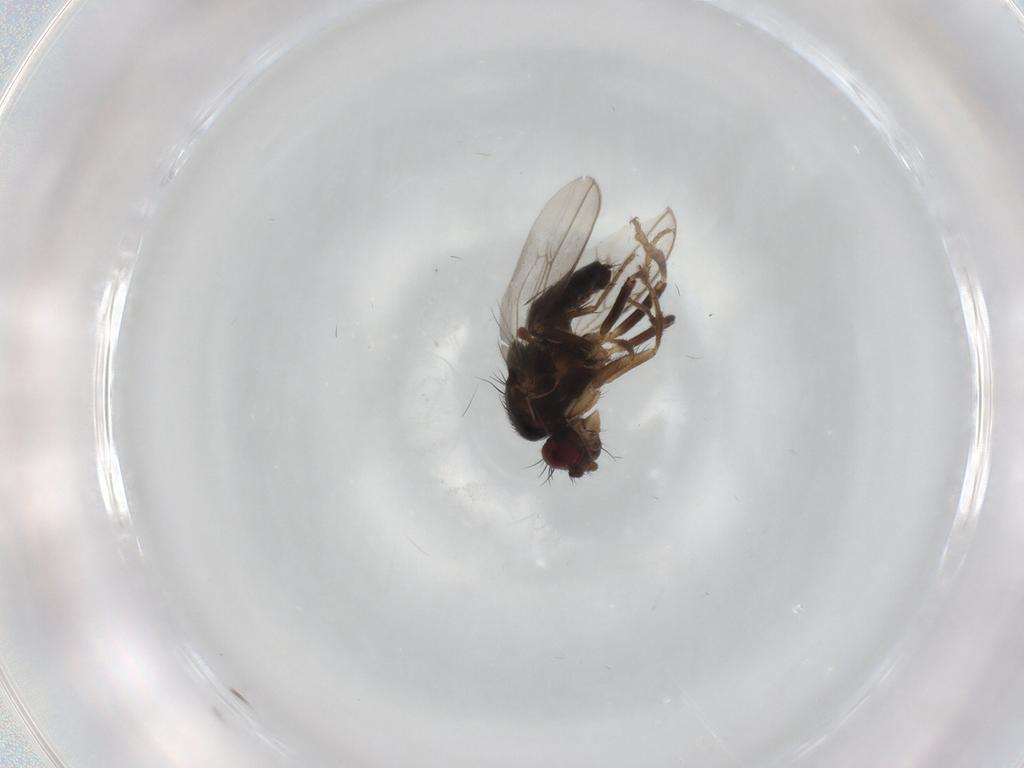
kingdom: Animalia
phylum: Arthropoda
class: Insecta
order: Diptera
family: Sphaeroceridae
